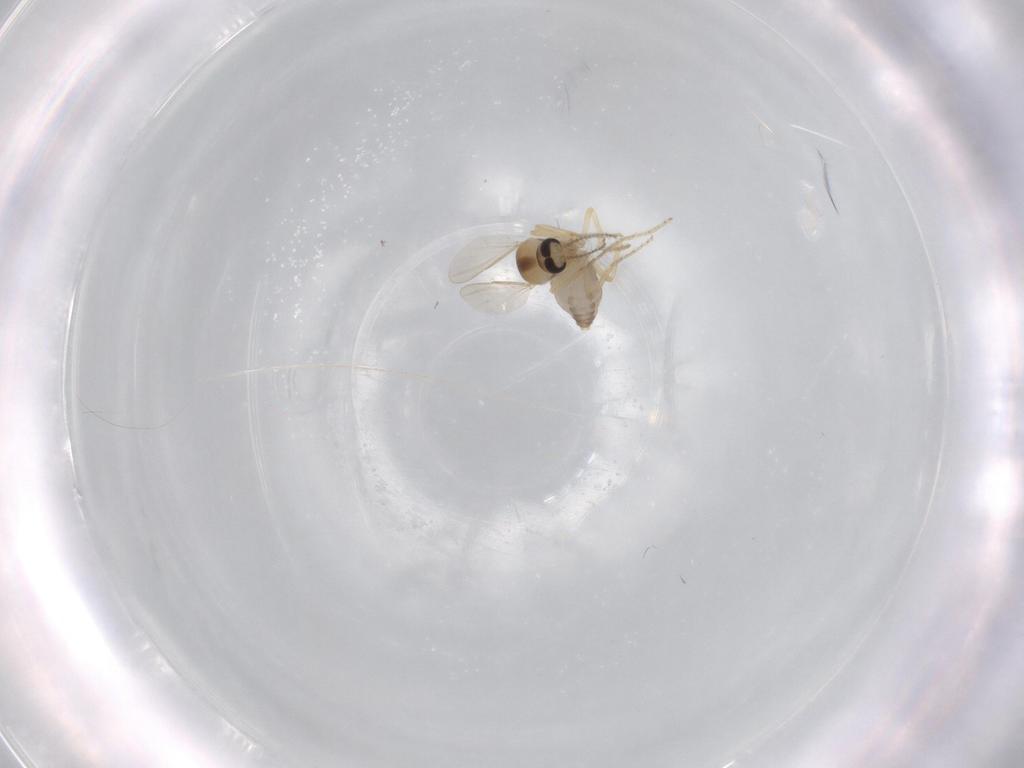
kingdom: Animalia
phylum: Arthropoda
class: Insecta
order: Diptera
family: Ceratopogonidae
